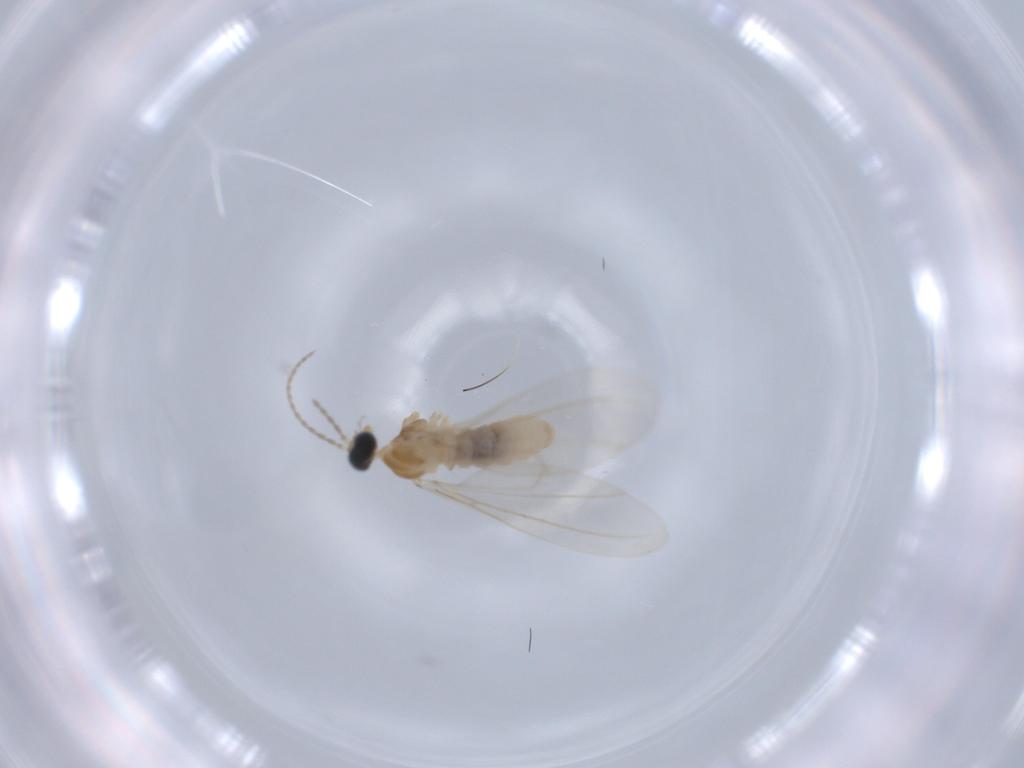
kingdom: Animalia
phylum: Arthropoda
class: Insecta
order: Diptera
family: Cecidomyiidae
